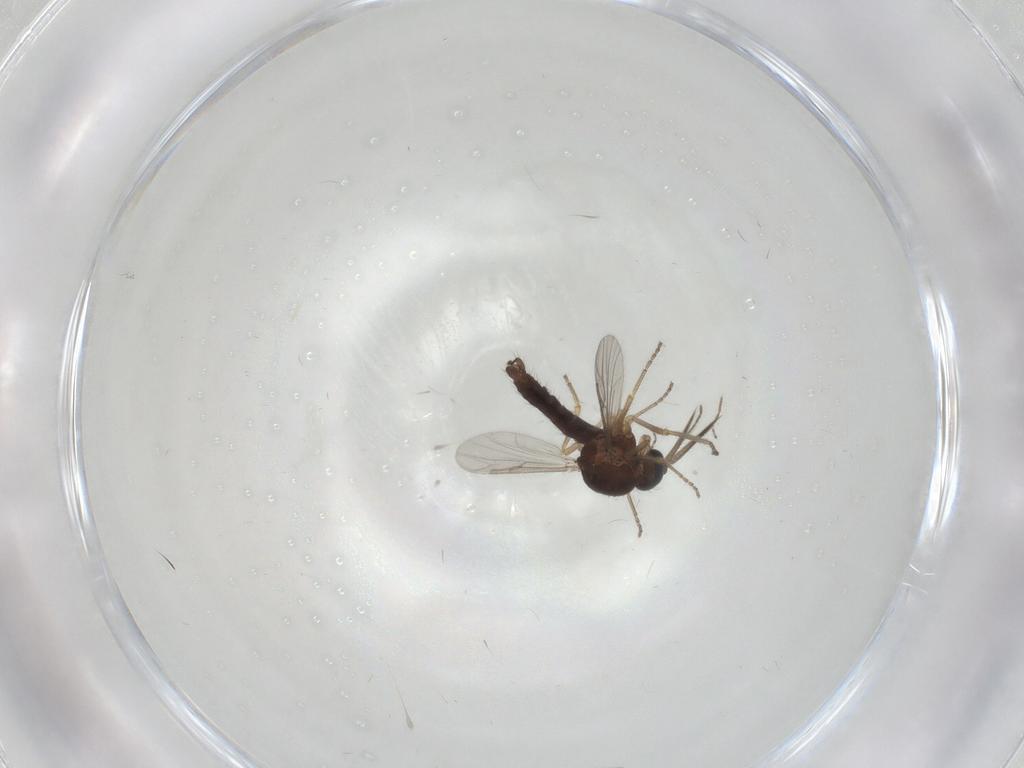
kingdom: Animalia
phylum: Arthropoda
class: Insecta
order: Diptera
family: Ceratopogonidae
